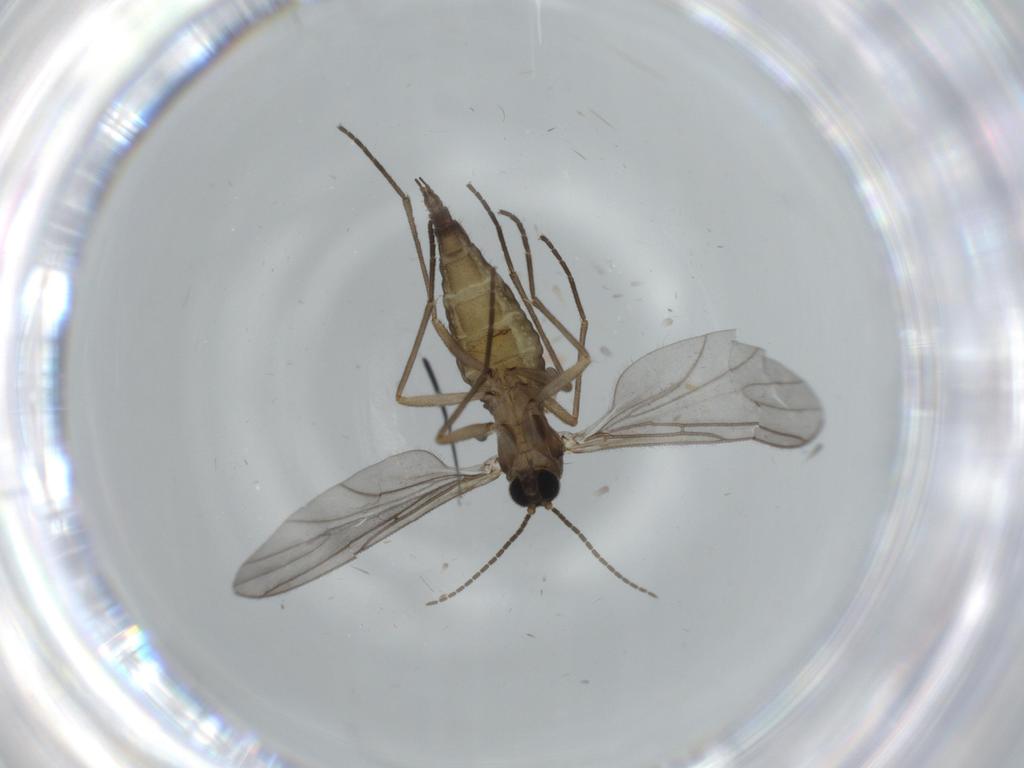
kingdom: Animalia
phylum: Arthropoda
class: Insecta
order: Diptera
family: Sciaridae
